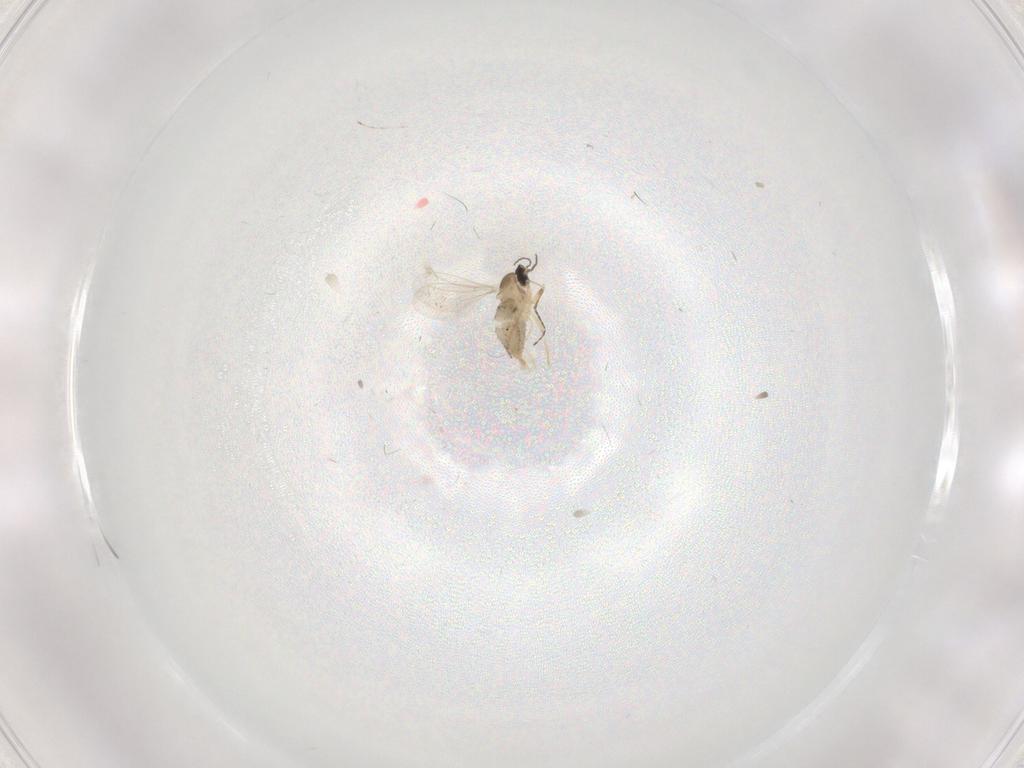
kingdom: Animalia
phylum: Arthropoda
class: Insecta
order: Diptera
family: Cecidomyiidae
